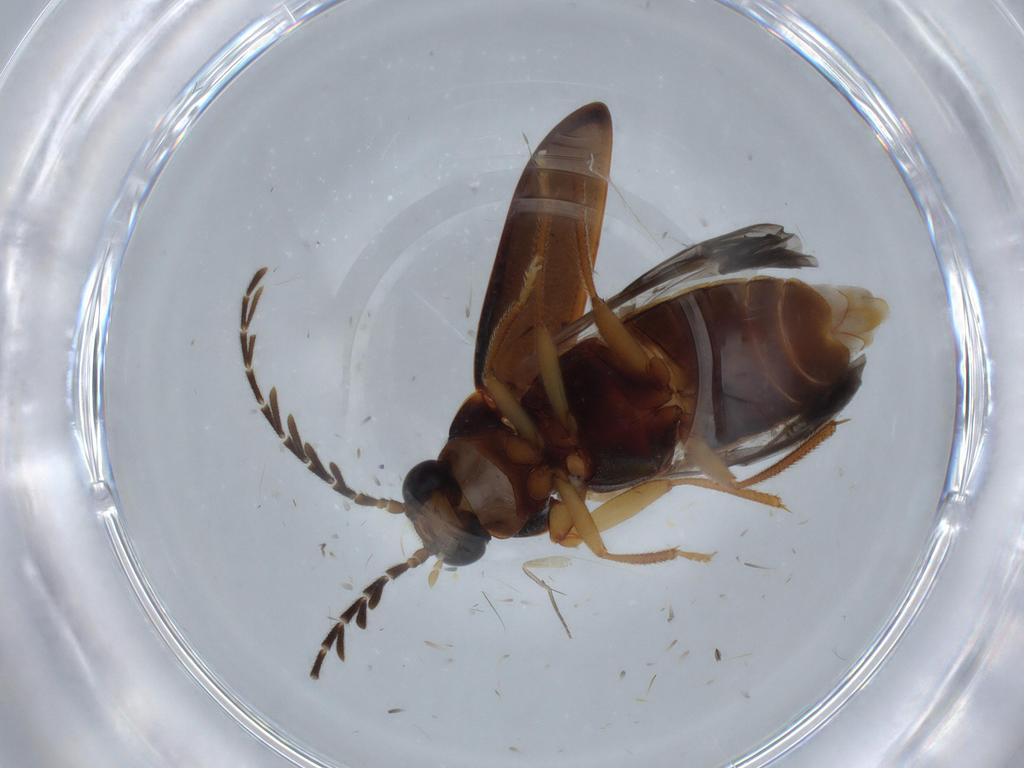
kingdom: Animalia
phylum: Arthropoda
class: Insecta
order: Coleoptera
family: Ptilodactylidae
